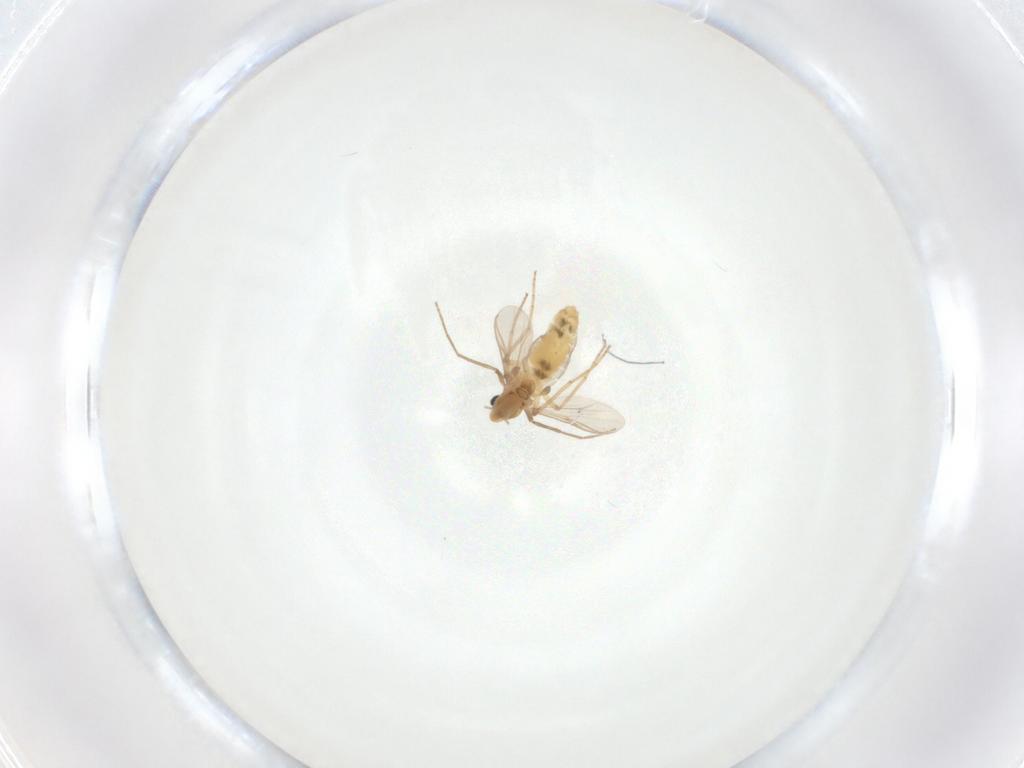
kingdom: Animalia
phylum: Arthropoda
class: Insecta
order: Diptera
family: Chironomidae
